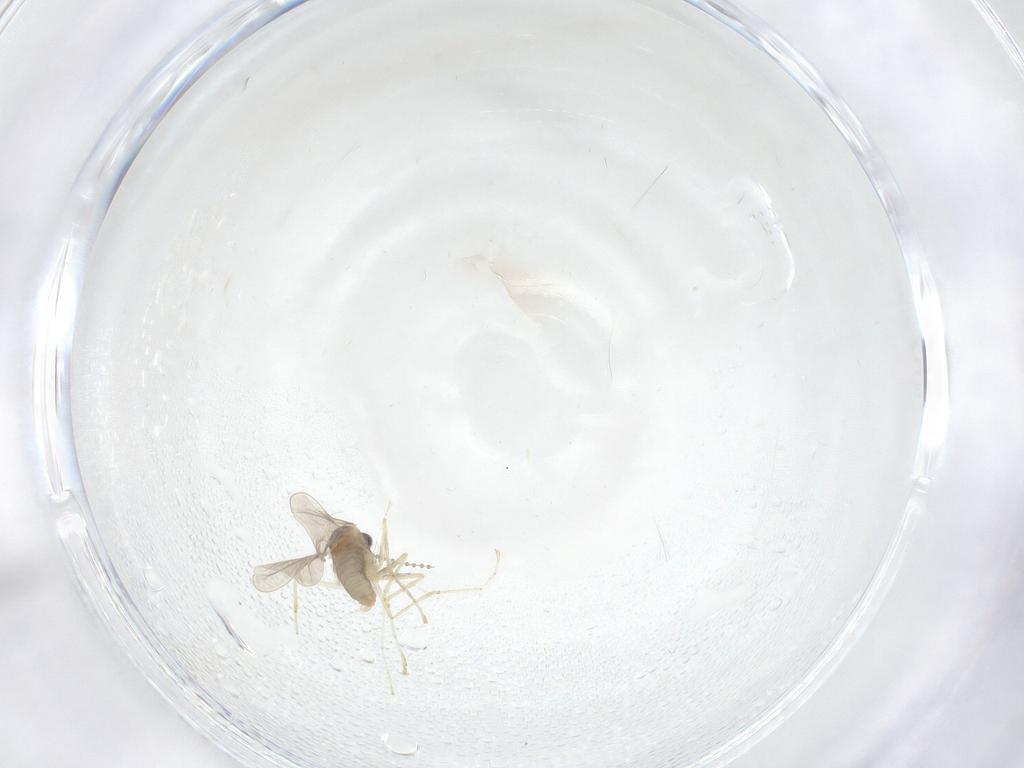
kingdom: Animalia
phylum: Arthropoda
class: Insecta
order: Diptera
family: Cecidomyiidae
